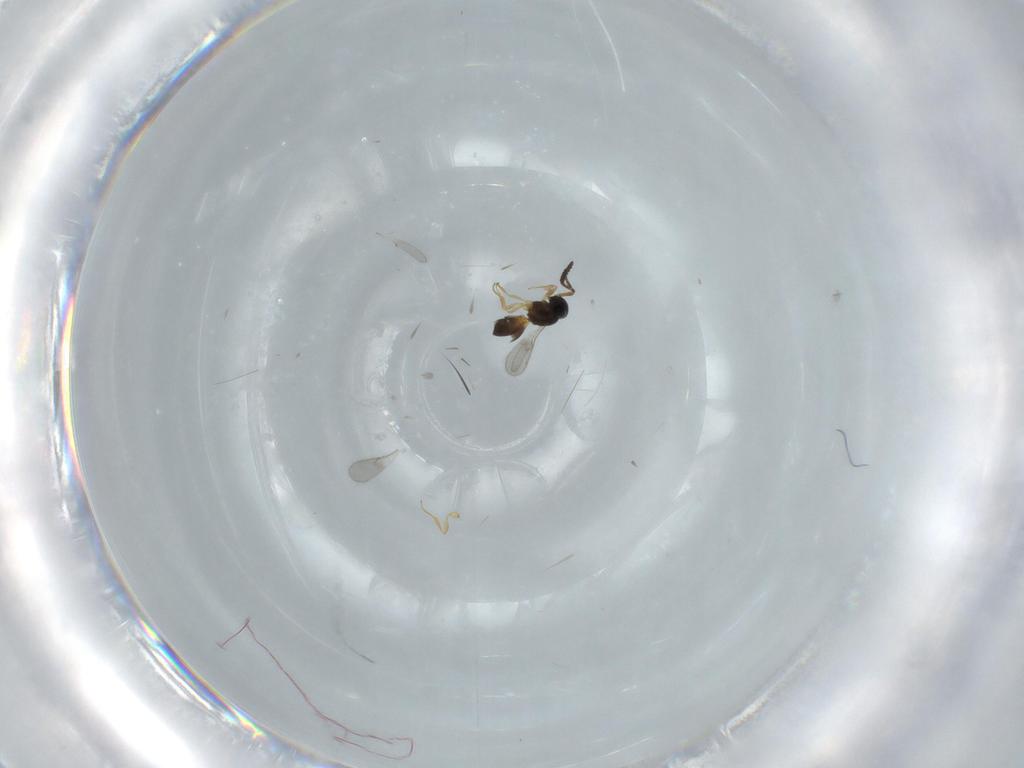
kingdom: Animalia
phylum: Arthropoda
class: Insecta
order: Hymenoptera
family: Scelionidae
